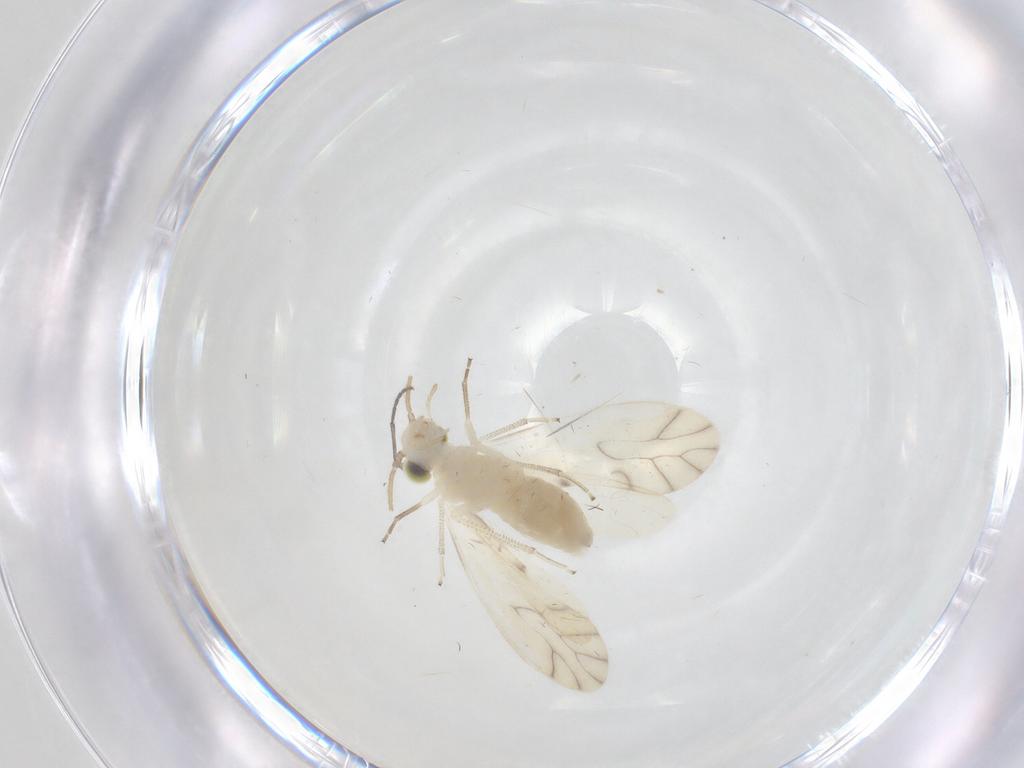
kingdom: Animalia
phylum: Arthropoda
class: Insecta
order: Psocodea
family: Caeciliusidae
